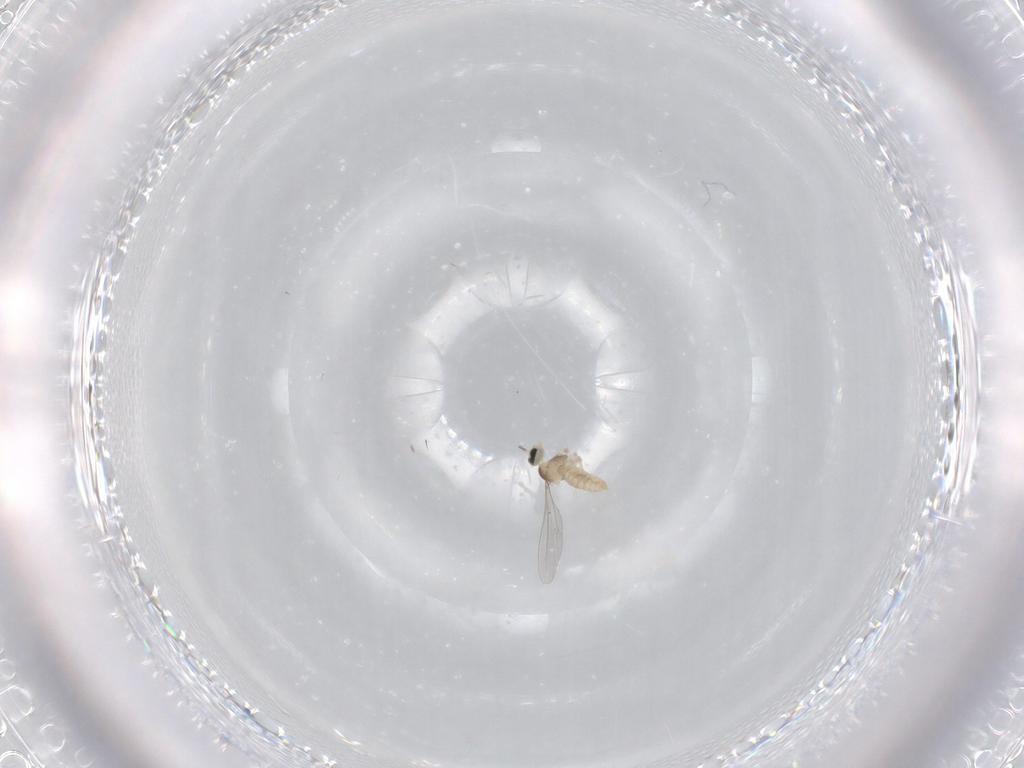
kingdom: Animalia
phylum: Arthropoda
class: Insecta
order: Diptera
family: Cecidomyiidae
